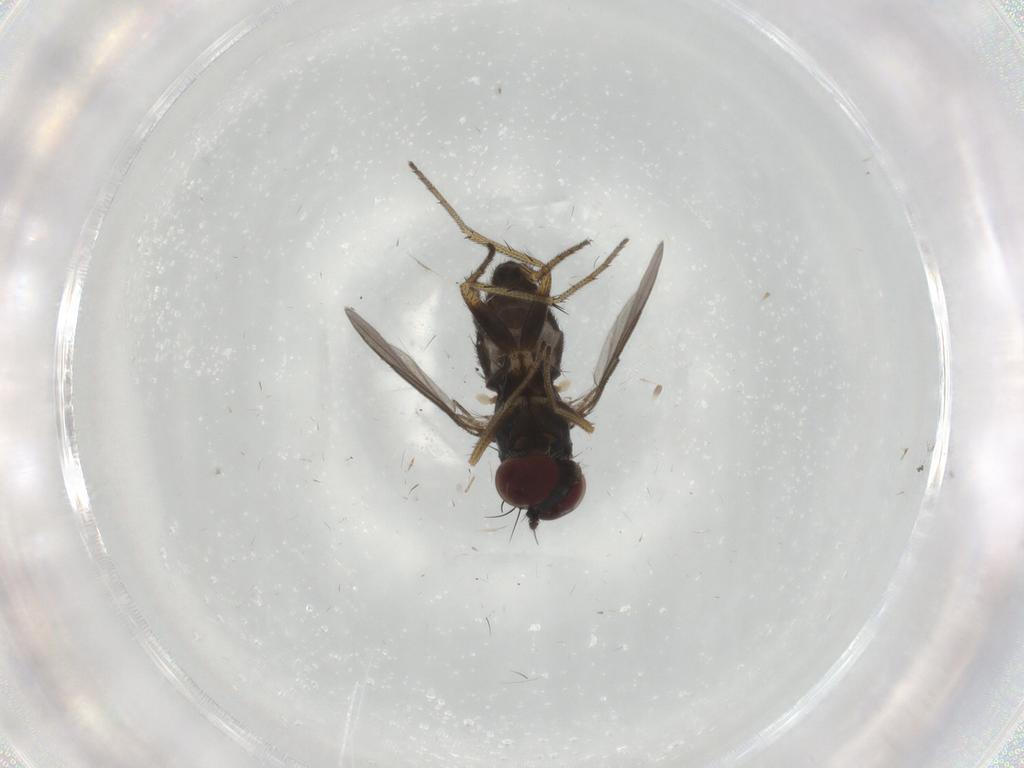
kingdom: Animalia
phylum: Arthropoda
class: Insecta
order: Diptera
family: Dolichopodidae
